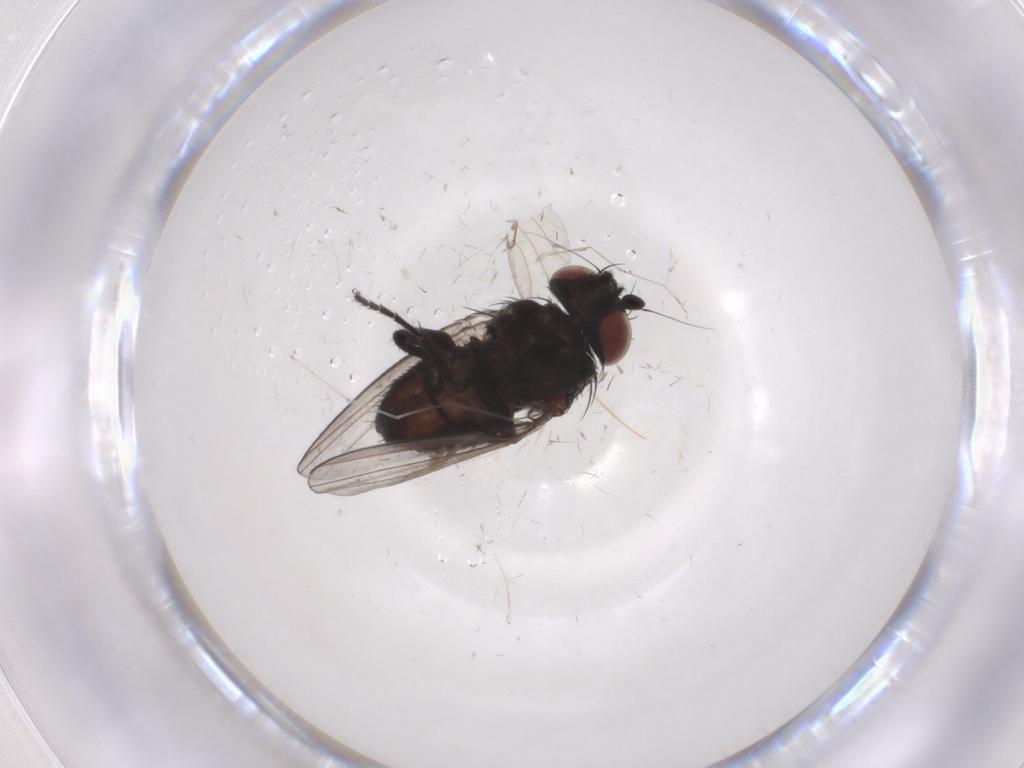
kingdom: Animalia
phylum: Arthropoda
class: Insecta
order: Diptera
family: Milichiidae
